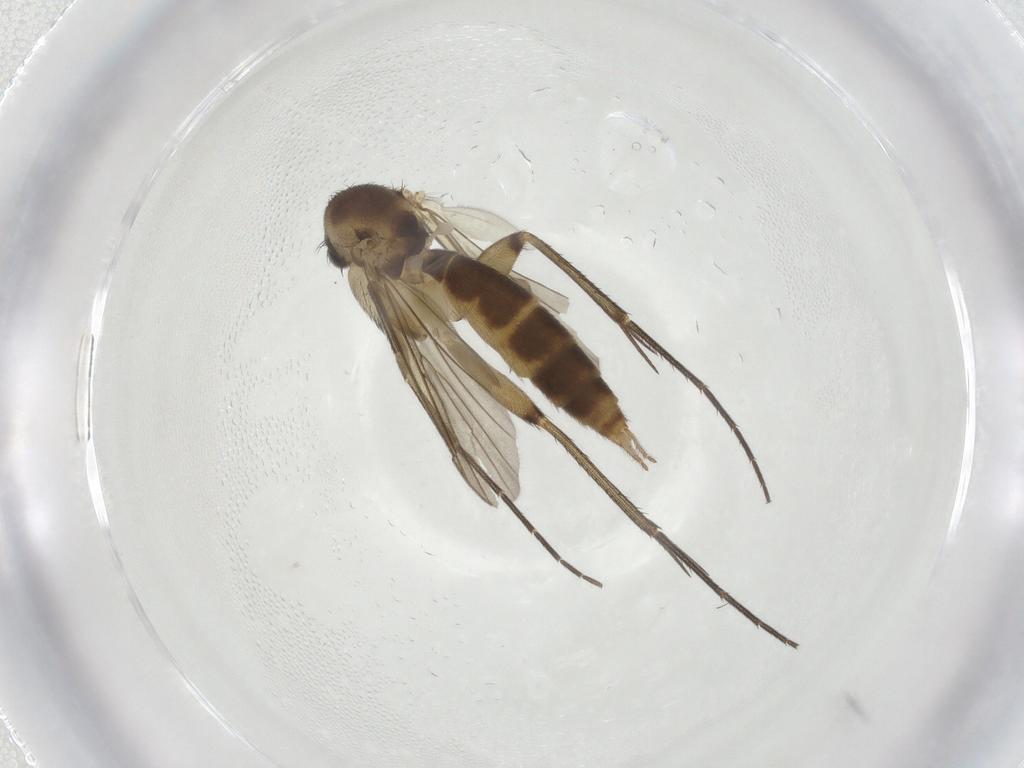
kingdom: Animalia
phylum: Arthropoda
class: Insecta
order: Diptera
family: Mycetophilidae
